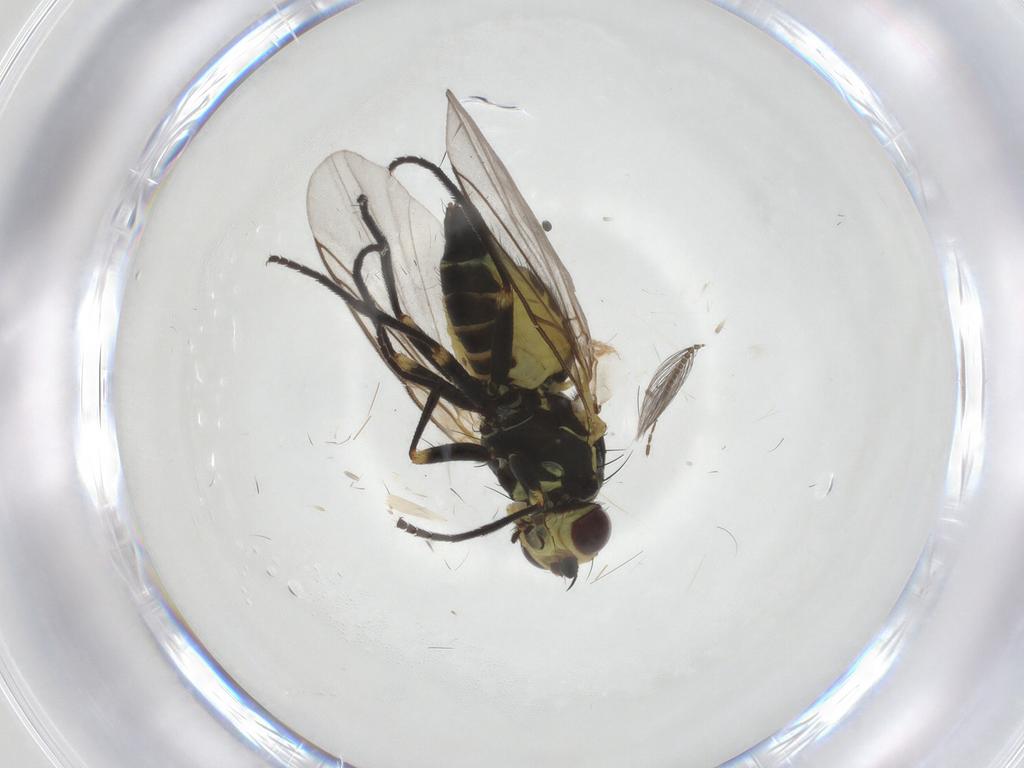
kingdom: Animalia
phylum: Arthropoda
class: Insecta
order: Diptera
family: Agromyzidae
